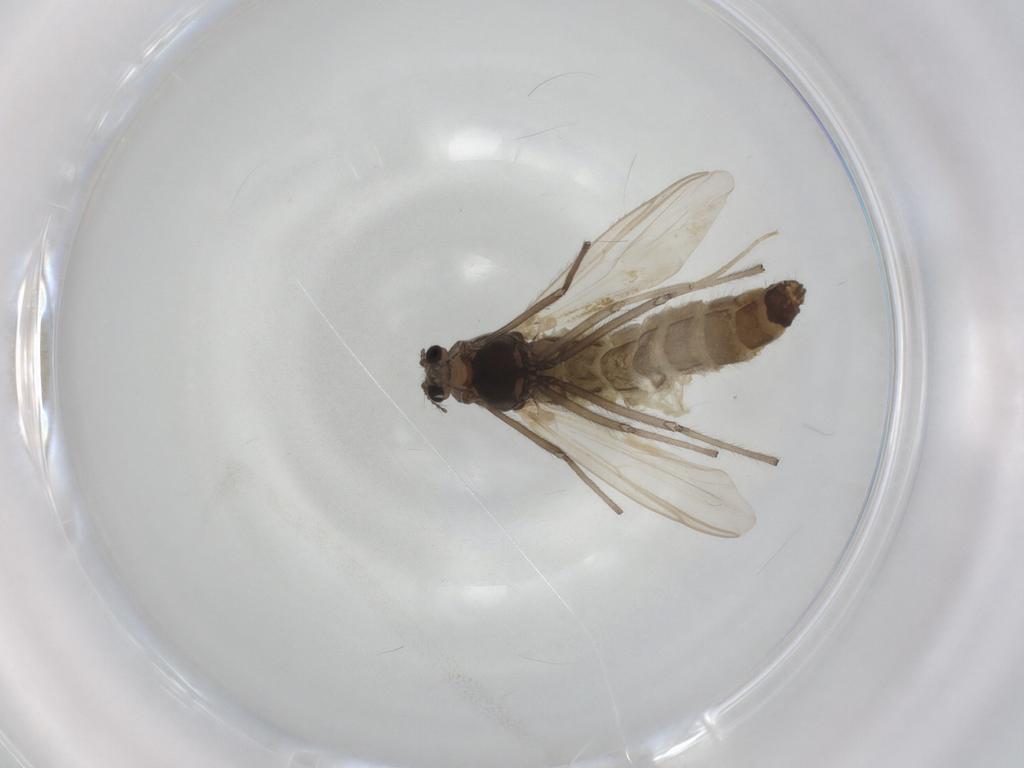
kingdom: Animalia
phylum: Arthropoda
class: Insecta
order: Diptera
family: Chironomidae
